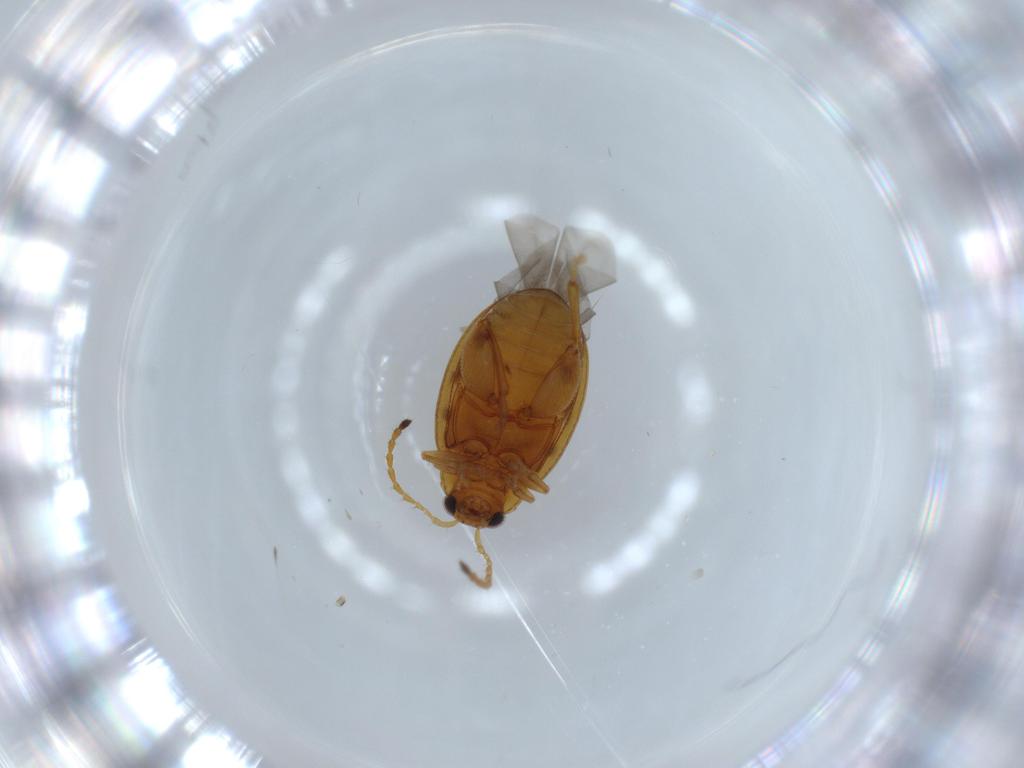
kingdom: Animalia
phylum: Arthropoda
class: Insecta
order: Coleoptera
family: Chrysomelidae
